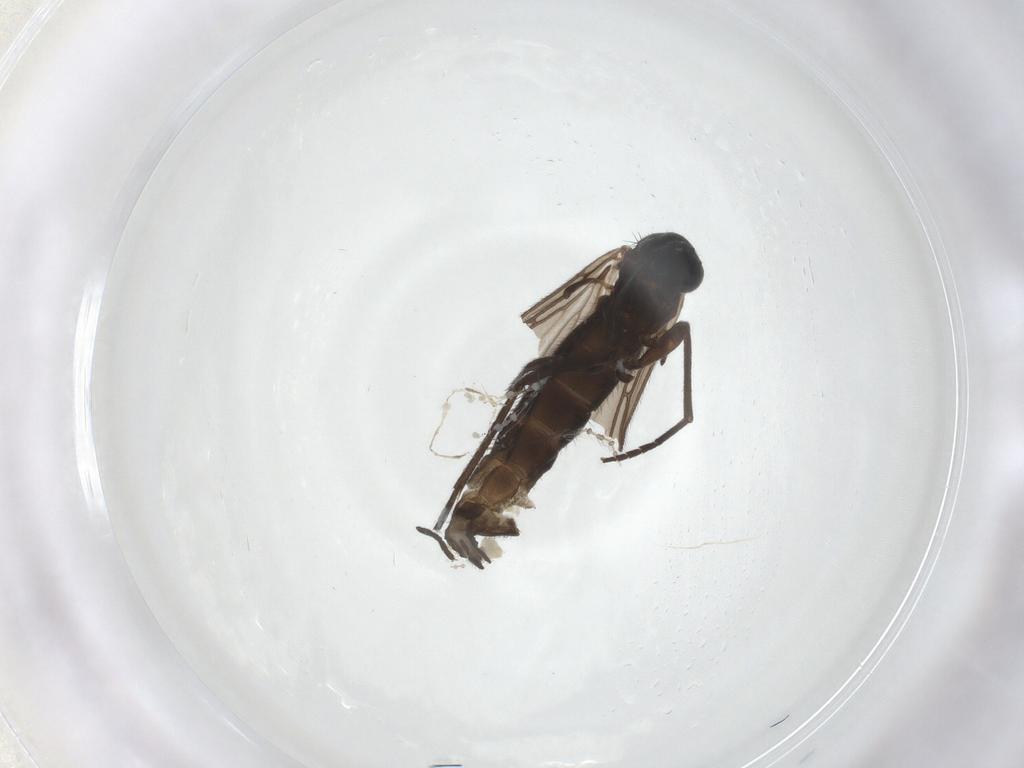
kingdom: Animalia
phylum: Arthropoda
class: Insecta
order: Diptera
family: Sciaridae
